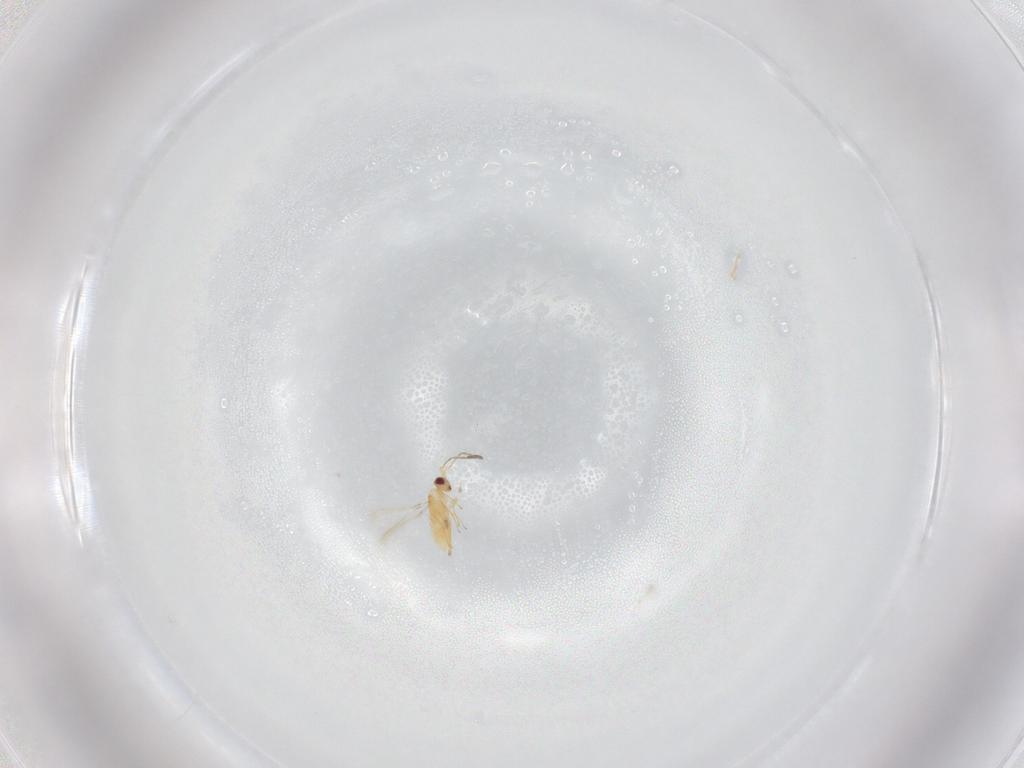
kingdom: Animalia
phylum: Arthropoda
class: Insecta
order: Hymenoptera
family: Mymaridae
